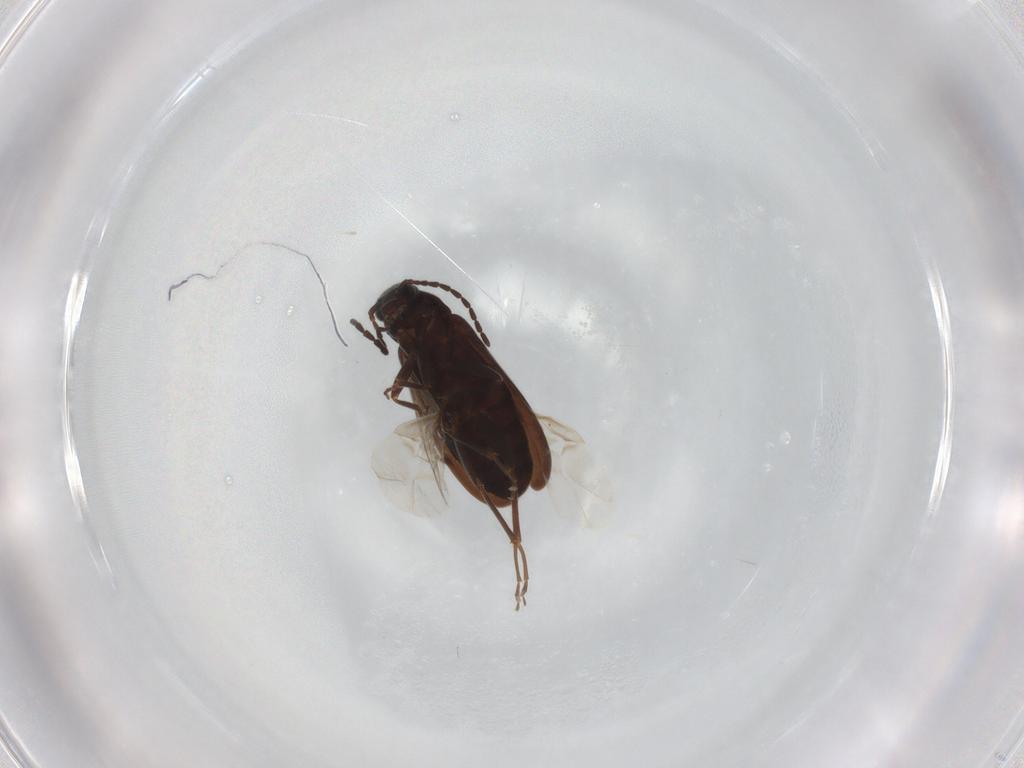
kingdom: Animalia
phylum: Arthropoda
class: Insecta
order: Coleoptera
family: Scraptiidae
